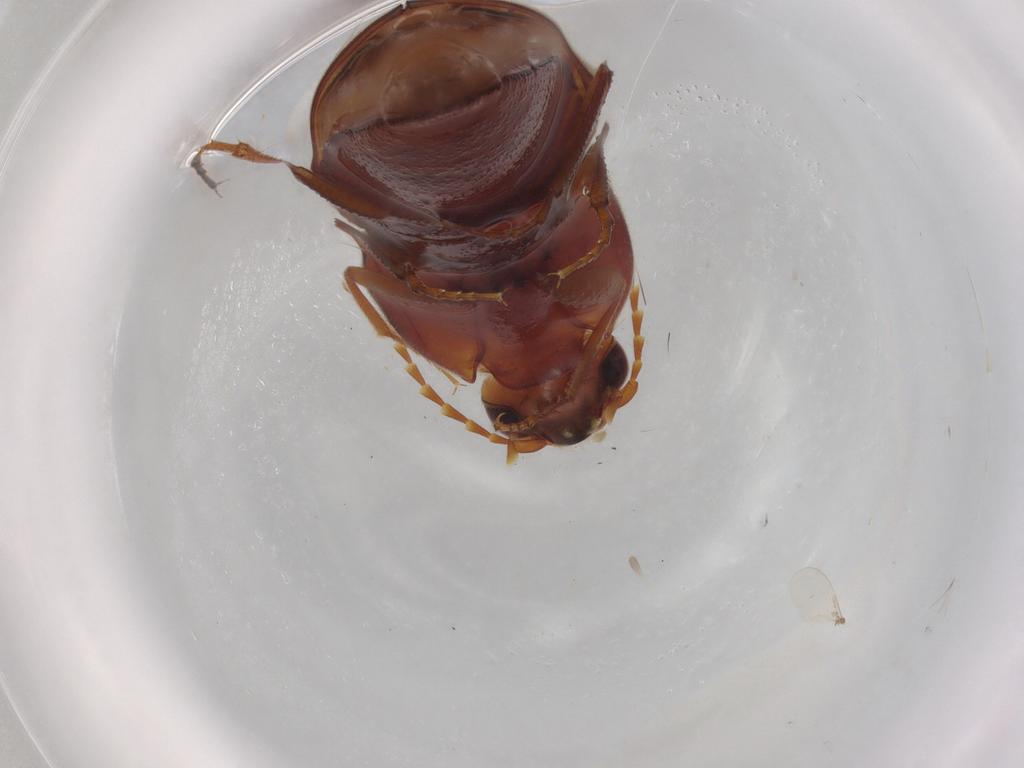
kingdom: Animalia
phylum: Arthropoda
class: Insecta
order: Coleoptera
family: Elateridae
